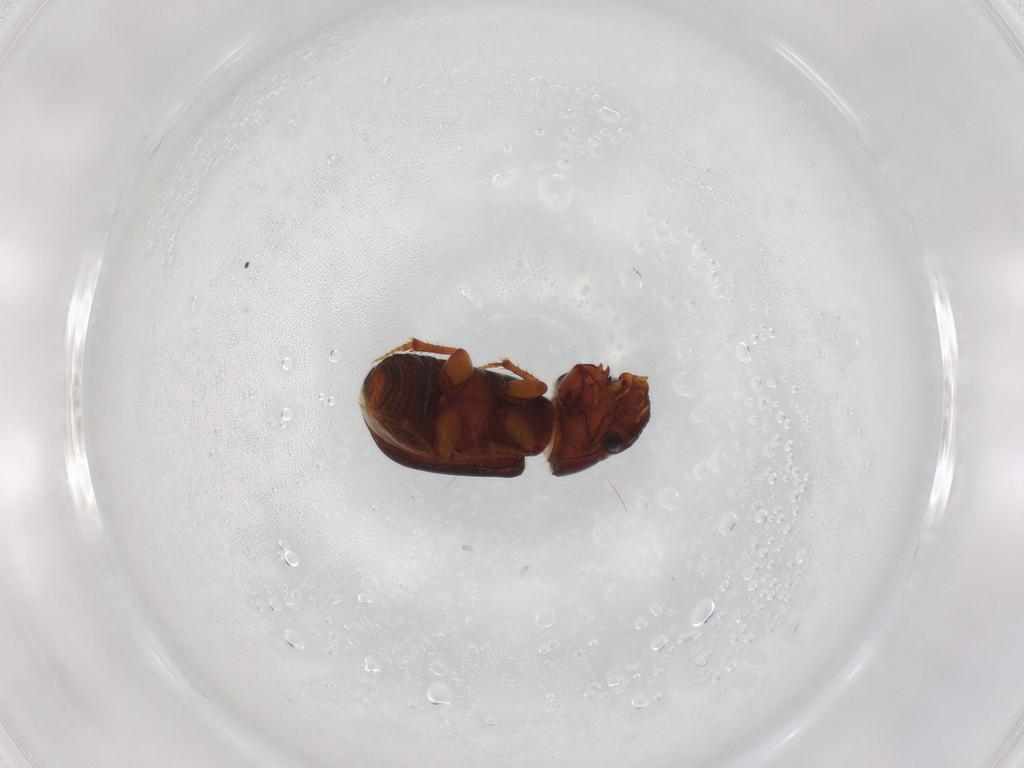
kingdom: Animalia
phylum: Arthropoda
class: Insecta
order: Coleoptera
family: Scarabaeidae
